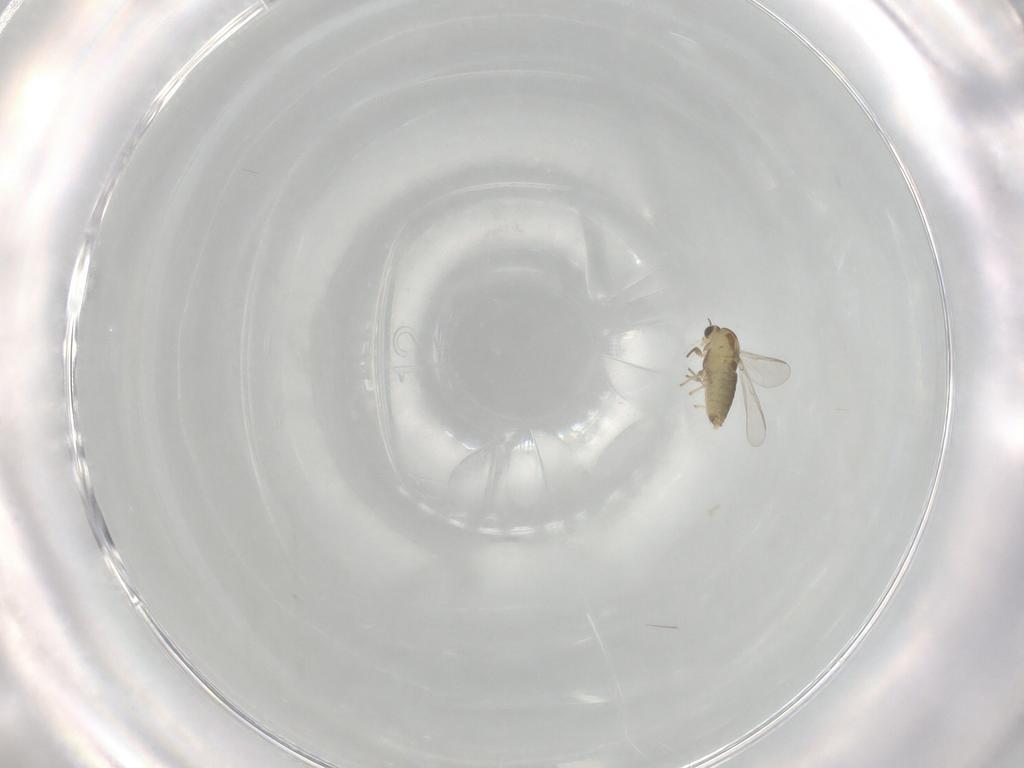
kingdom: Animalia
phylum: Arthropoda
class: Insecta
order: Diptera
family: Chironomidae
